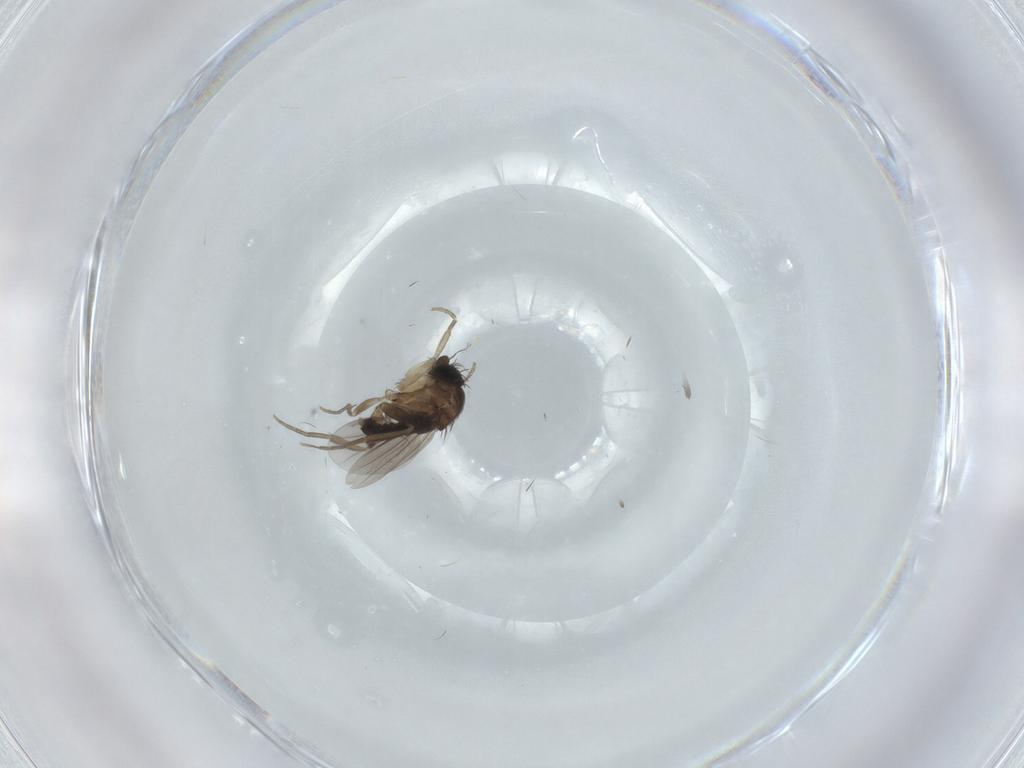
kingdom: Animalia
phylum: Arthropoda
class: Insecta
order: Diptera
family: Phoridae
